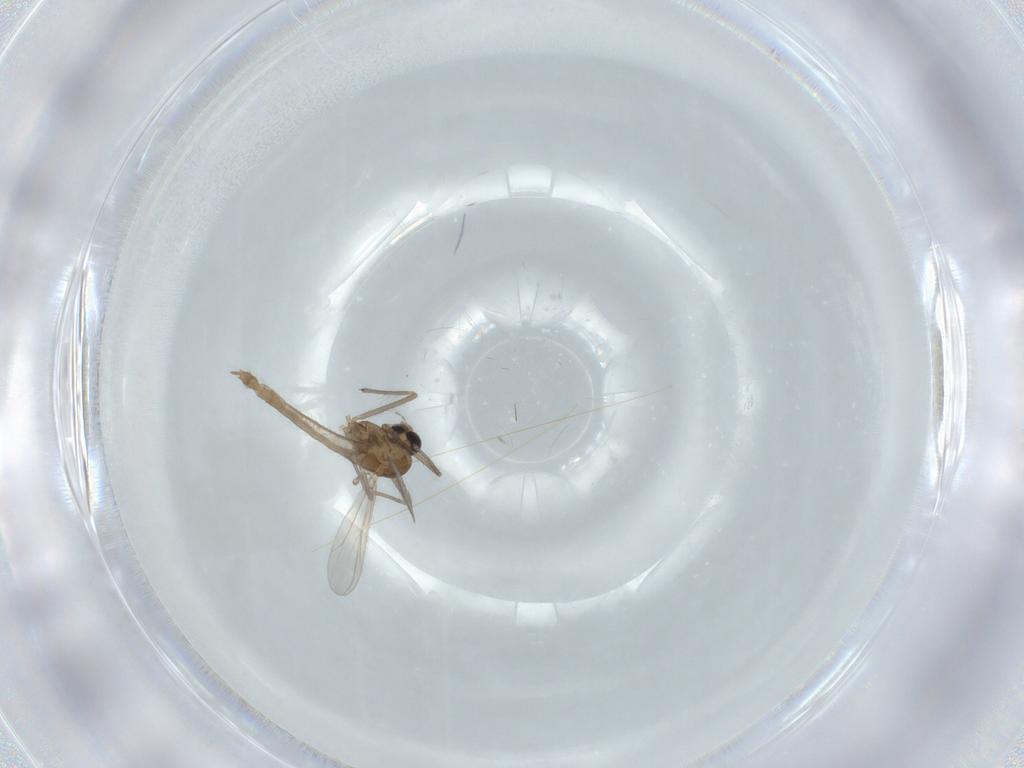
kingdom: Animalia
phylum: Arthropoda
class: Insecta
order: Diptera
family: Chironomidae
